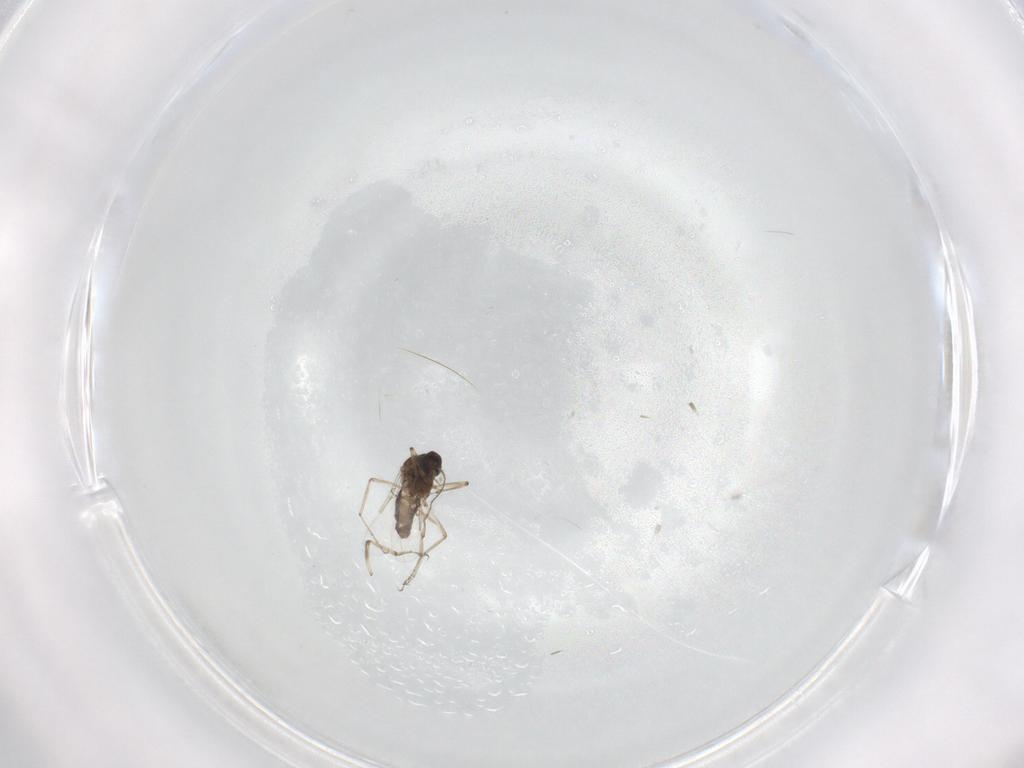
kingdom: Animalia
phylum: Arthropoda
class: Insecta
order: Diptera
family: Ceratopogonidae
